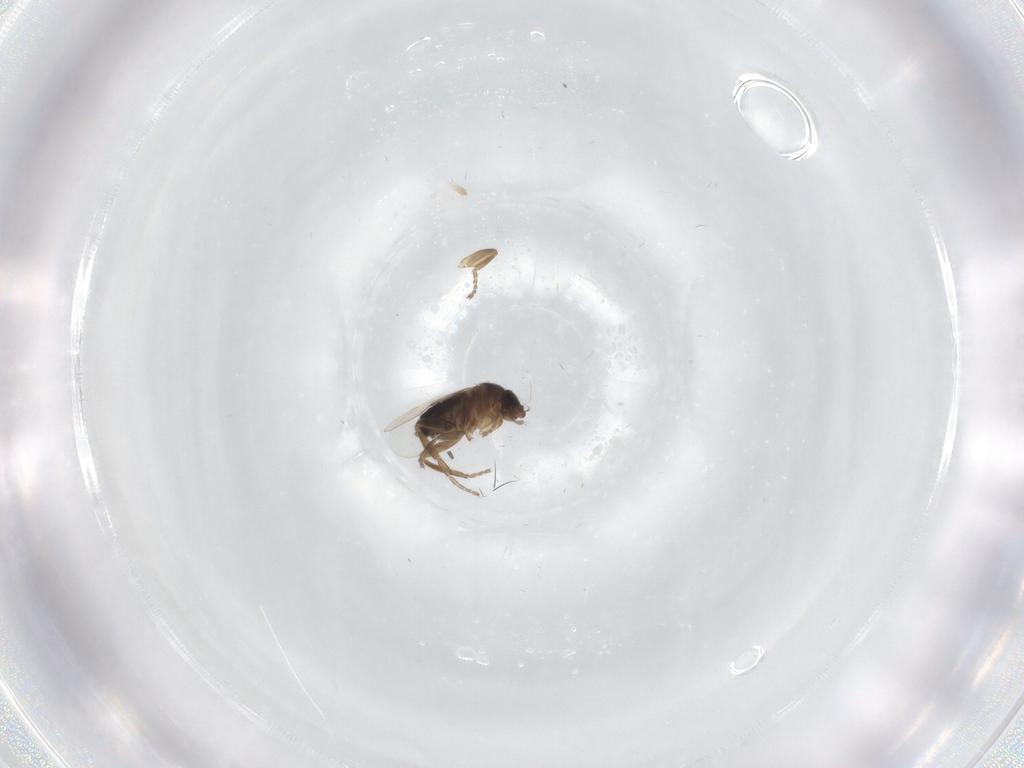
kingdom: Animalia
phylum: Arthropoda
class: Insecta
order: Diptera
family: Phoridae
